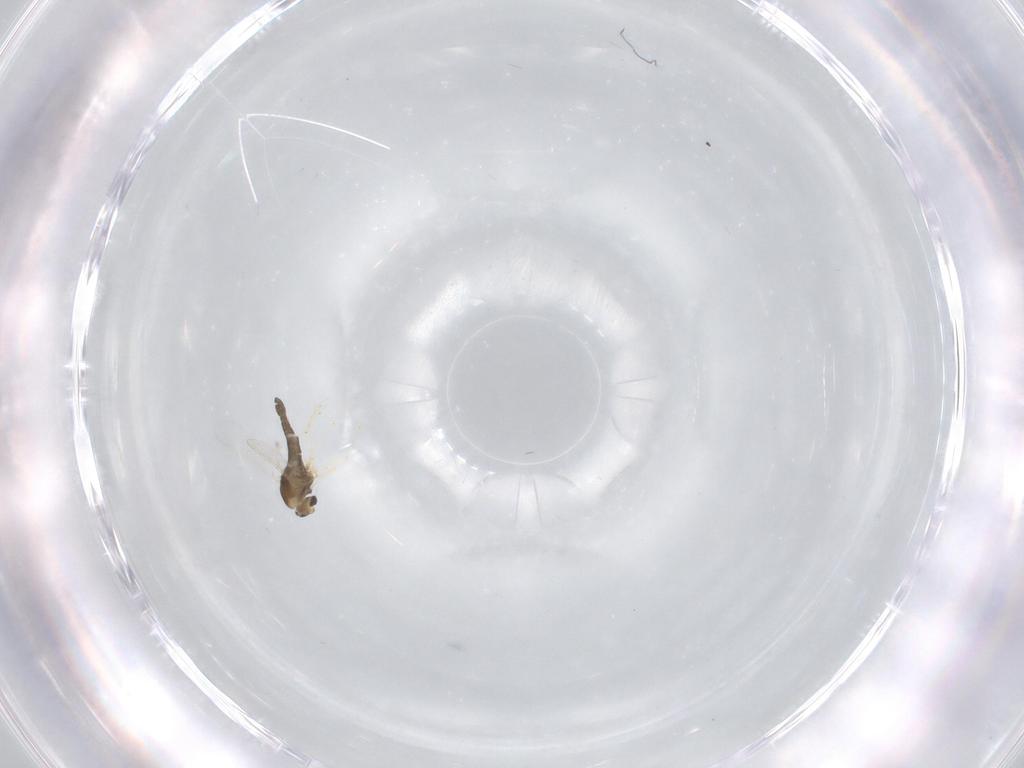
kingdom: Animalia
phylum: Arthropoda
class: Insecta
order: Diptera
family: Chironomidae
